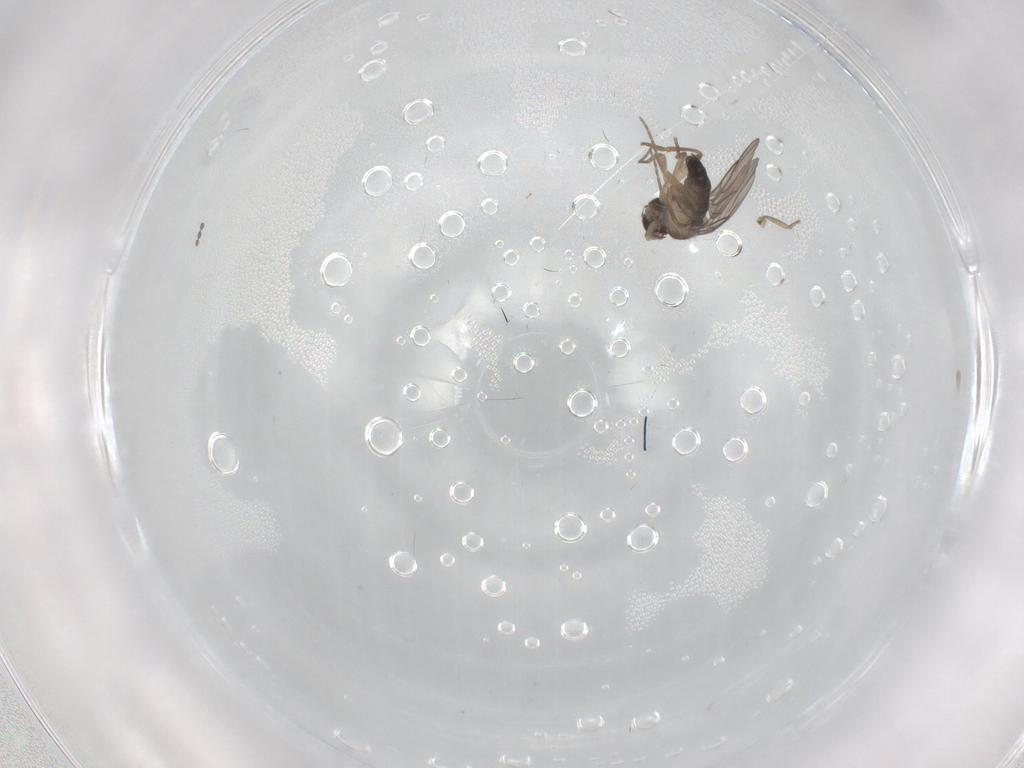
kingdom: Animalia
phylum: Arthropoda
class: Insecta
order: Diptera
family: Phoridae
